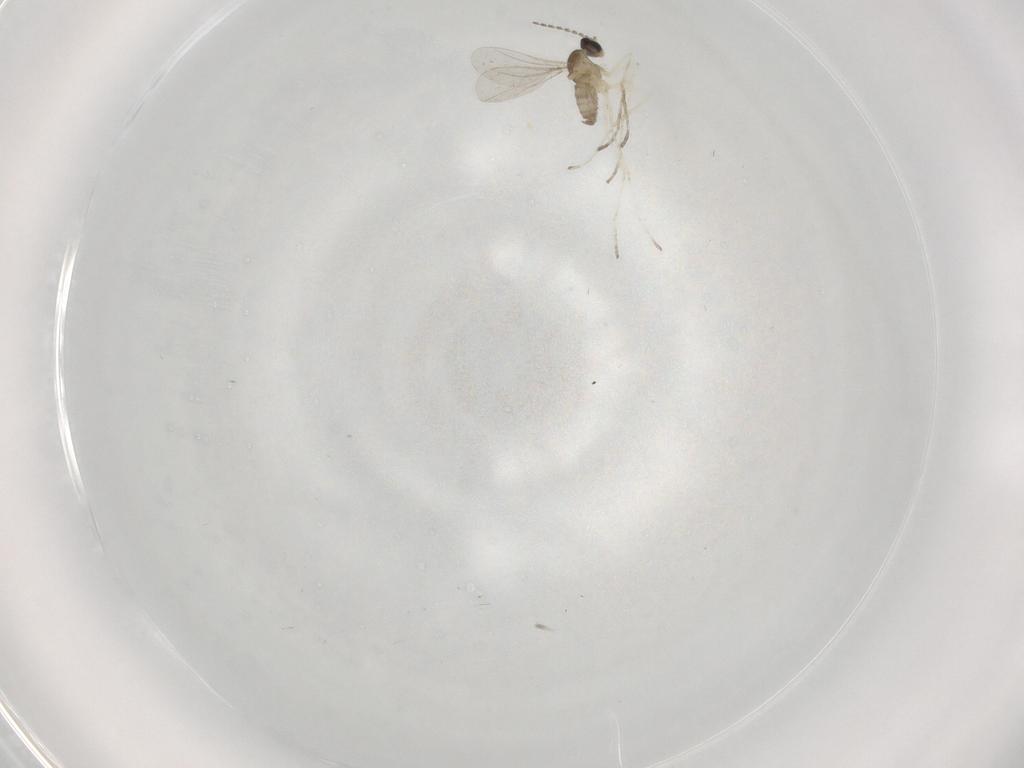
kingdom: Animalia
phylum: Arthropoda
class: Insecta
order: Diptera
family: Cecidomyiidae
